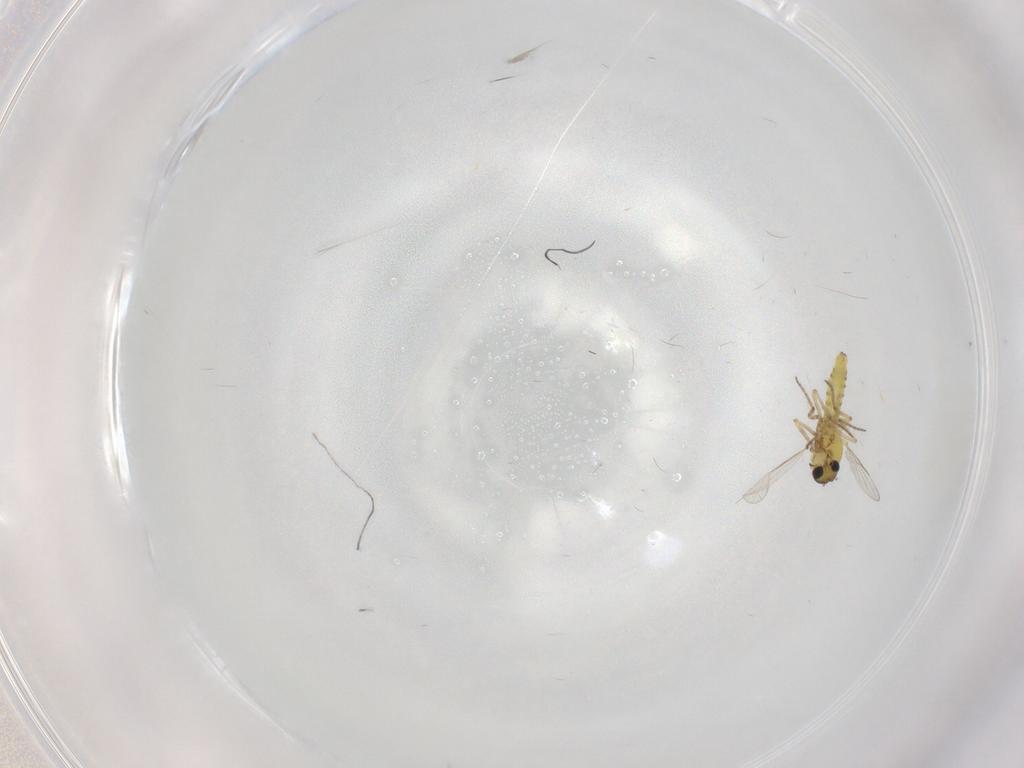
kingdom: Animalia
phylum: Arthropoda
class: Insecta
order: Diptera
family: Ceratopogonidae
